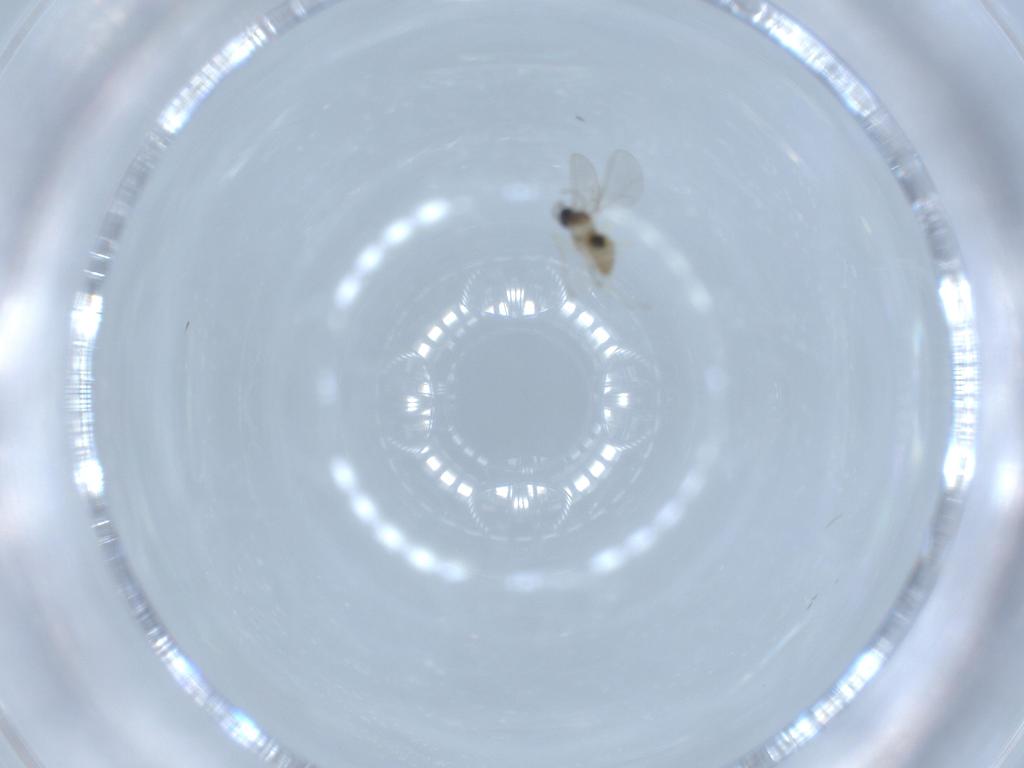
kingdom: Animalia
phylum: Arthropoda
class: Insecta
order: Diptera
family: Cecidomyiidae
